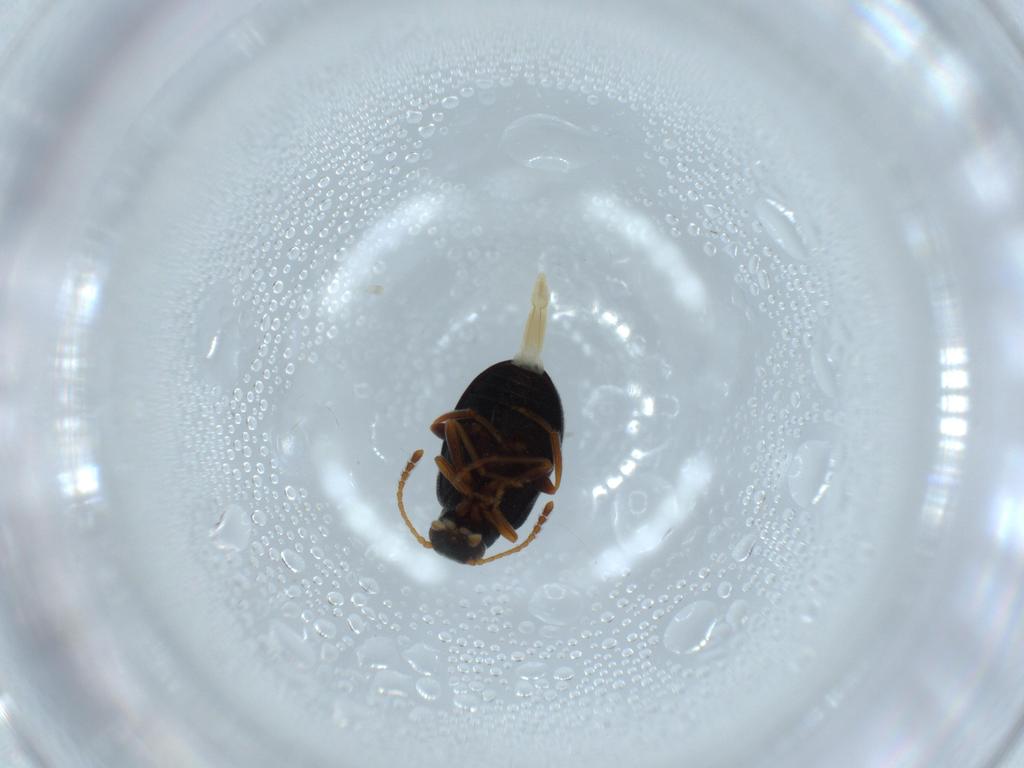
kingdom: Animalia
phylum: Arthropoda
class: Insecta
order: Coleoptera
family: Aderidae
